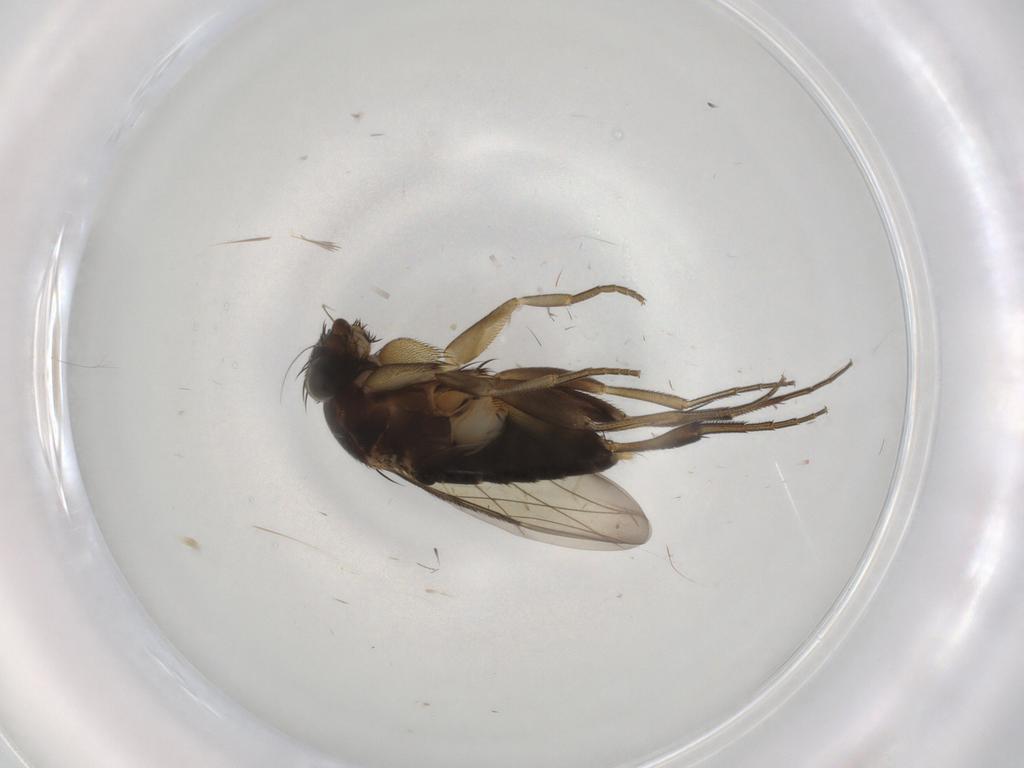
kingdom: Animalia
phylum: Arthropoda
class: Insecta
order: Diptera
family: Phoridae
